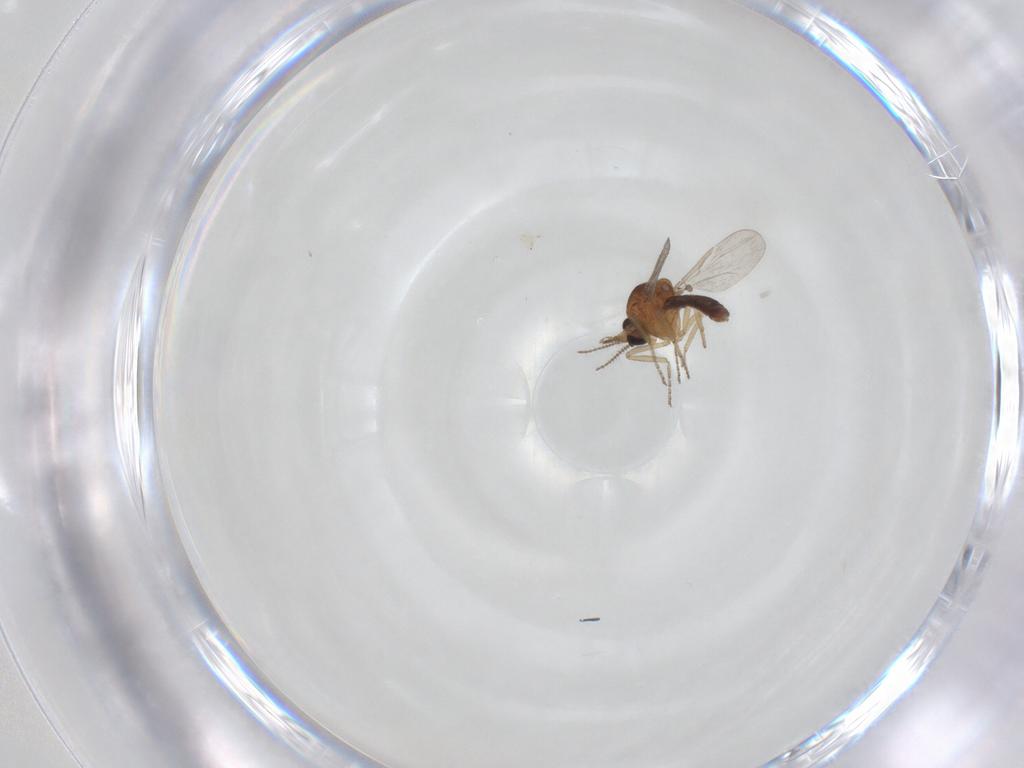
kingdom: Animalia
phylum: Arthropoda
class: Insecta
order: Diptera
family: Ceratopogonidae
